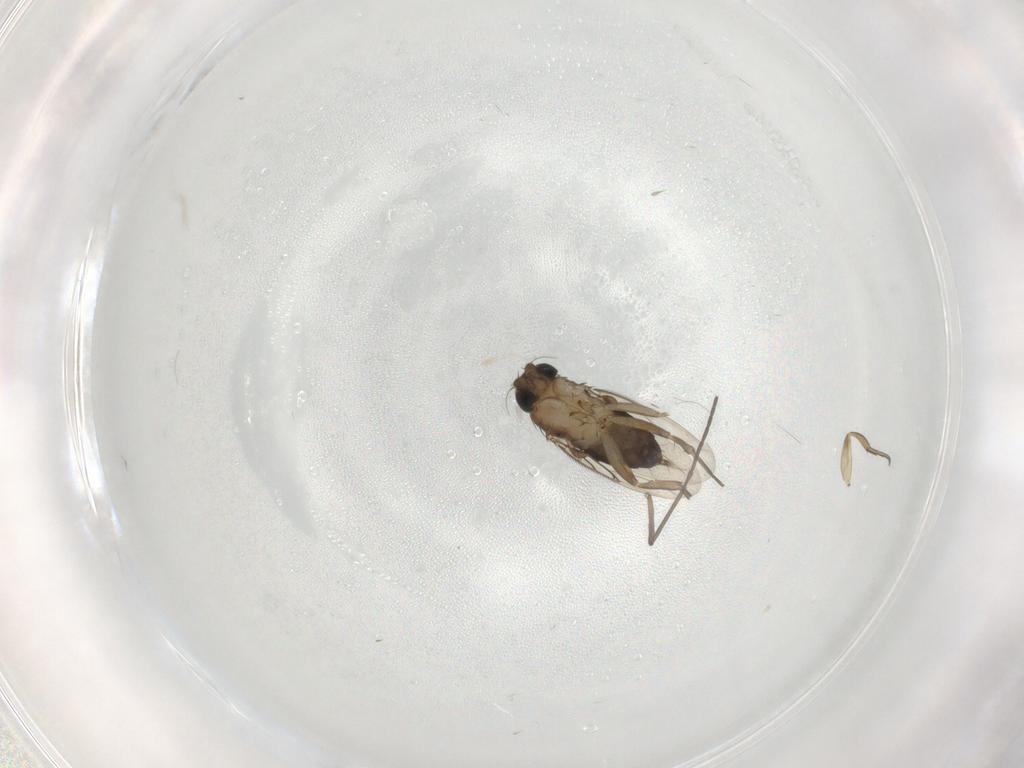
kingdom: Animalia
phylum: Arthropoda
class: Insecta
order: Diptera
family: Phoridae
